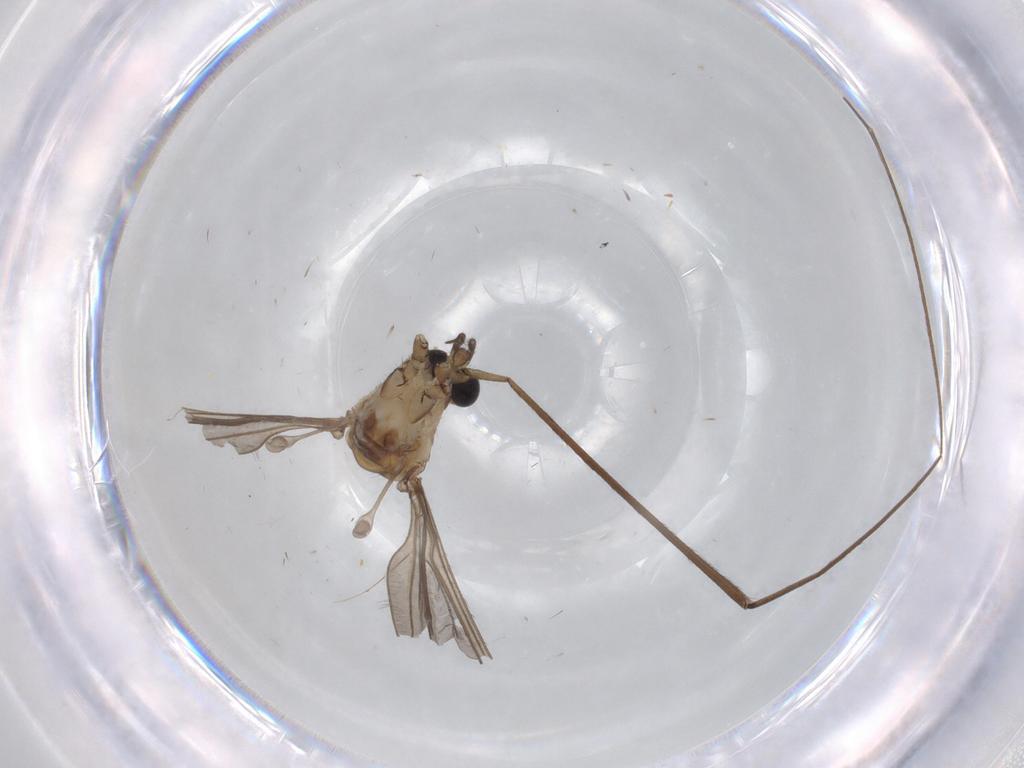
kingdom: Animalia
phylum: Arthropoda
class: Insecta
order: Diptera
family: Sciaridae
